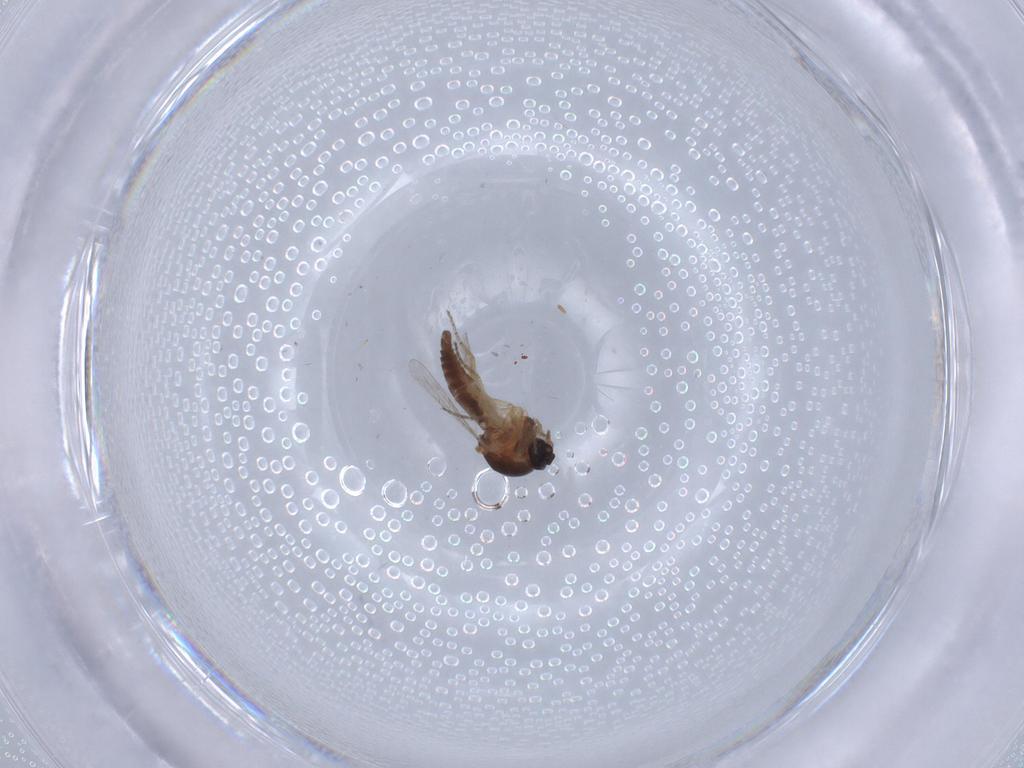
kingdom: Animalia
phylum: Arthropoda
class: Insecta
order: Diptera
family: Ceratopogonidae
